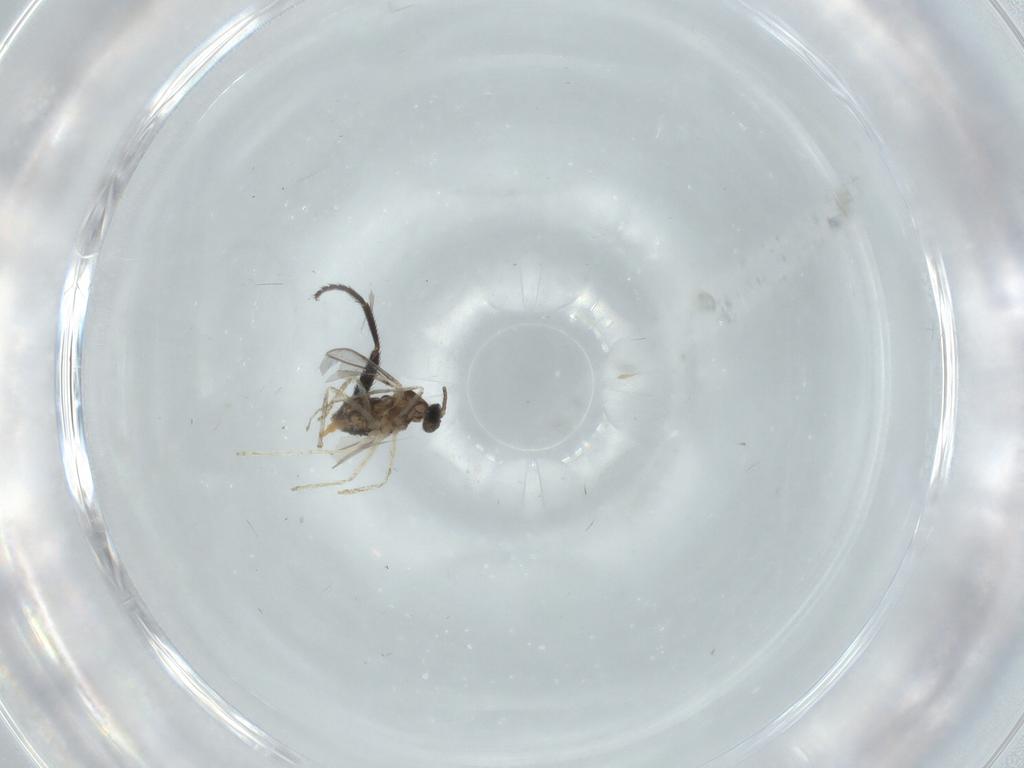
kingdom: Animalia
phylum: Arthropoda
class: Insecta
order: Diptera
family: Cecidomyiidae
